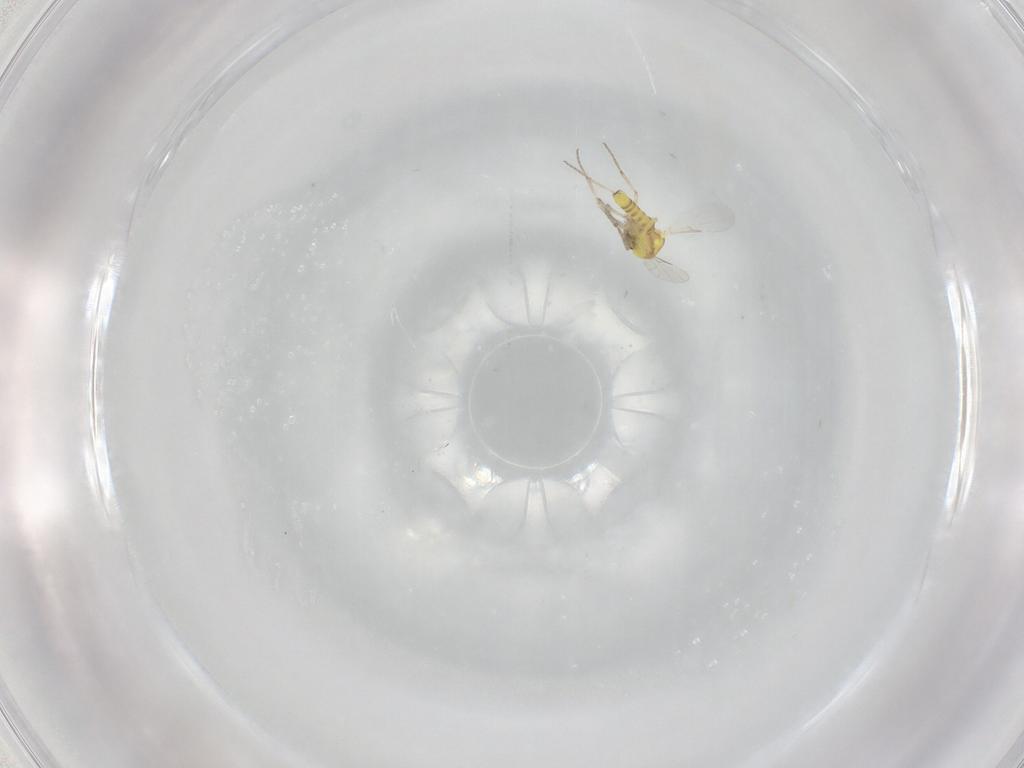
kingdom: Animalia
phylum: Arthropoda
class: Insecta
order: Diptera
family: Ceratopogonidae
